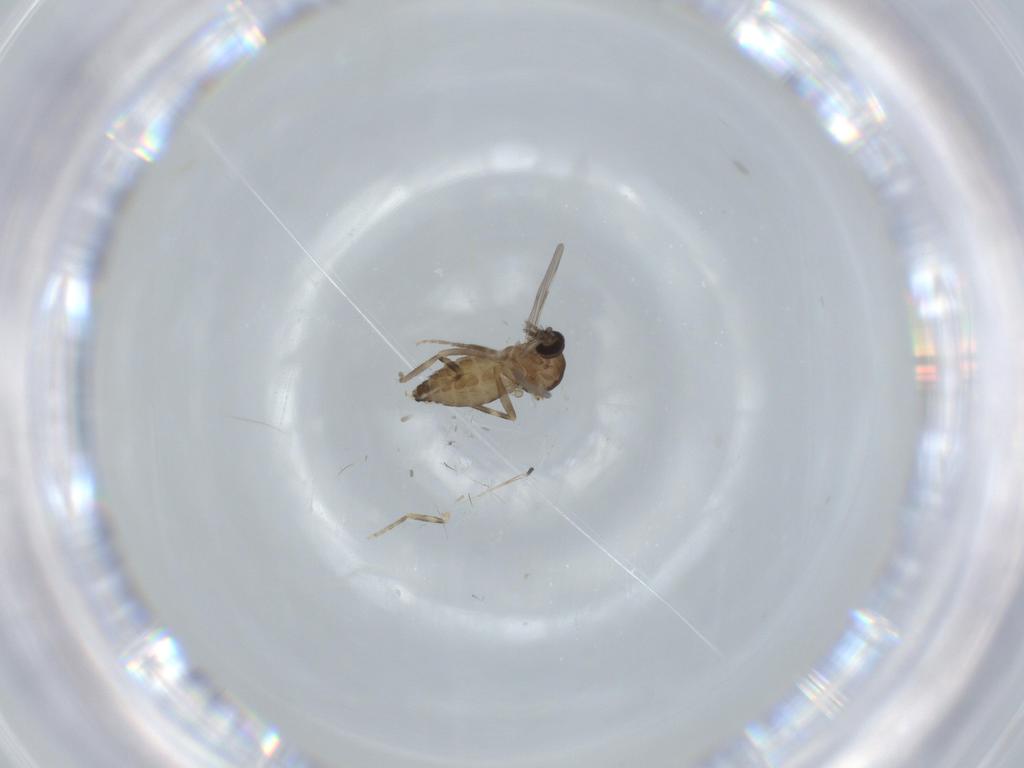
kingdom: Animalia
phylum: Arthropoda
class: Insecta
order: Diptera
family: Ceratopogonidae
